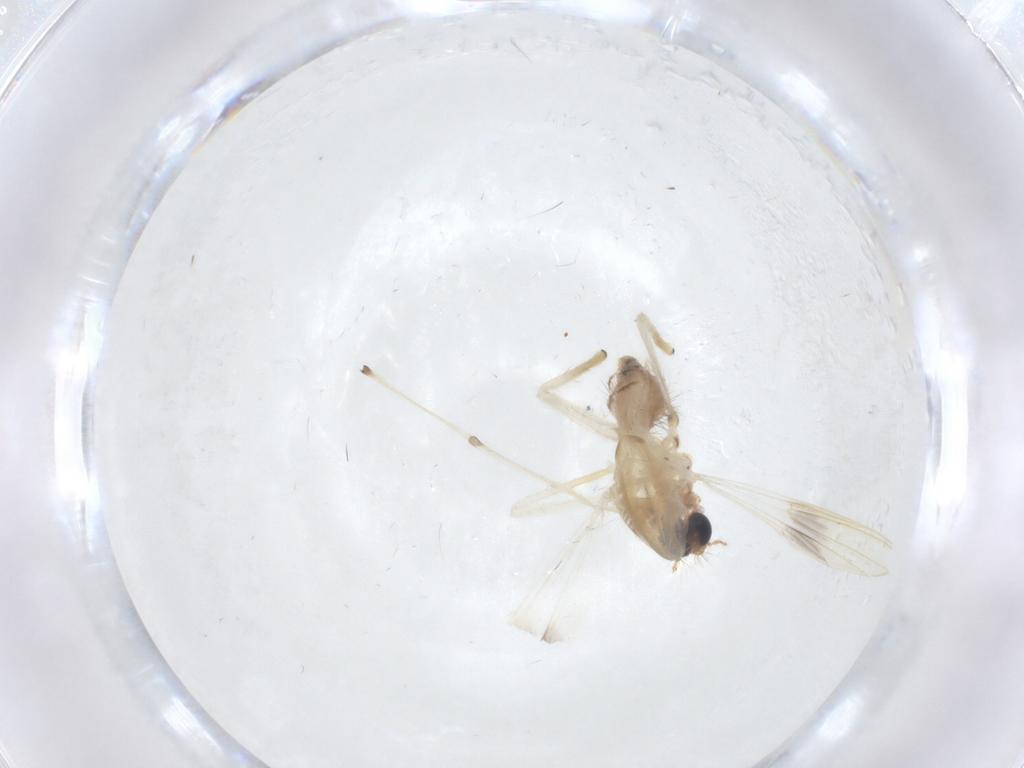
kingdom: Animalia
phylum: Arthropoda
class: Insecta
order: Diptera
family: Chironomidae
